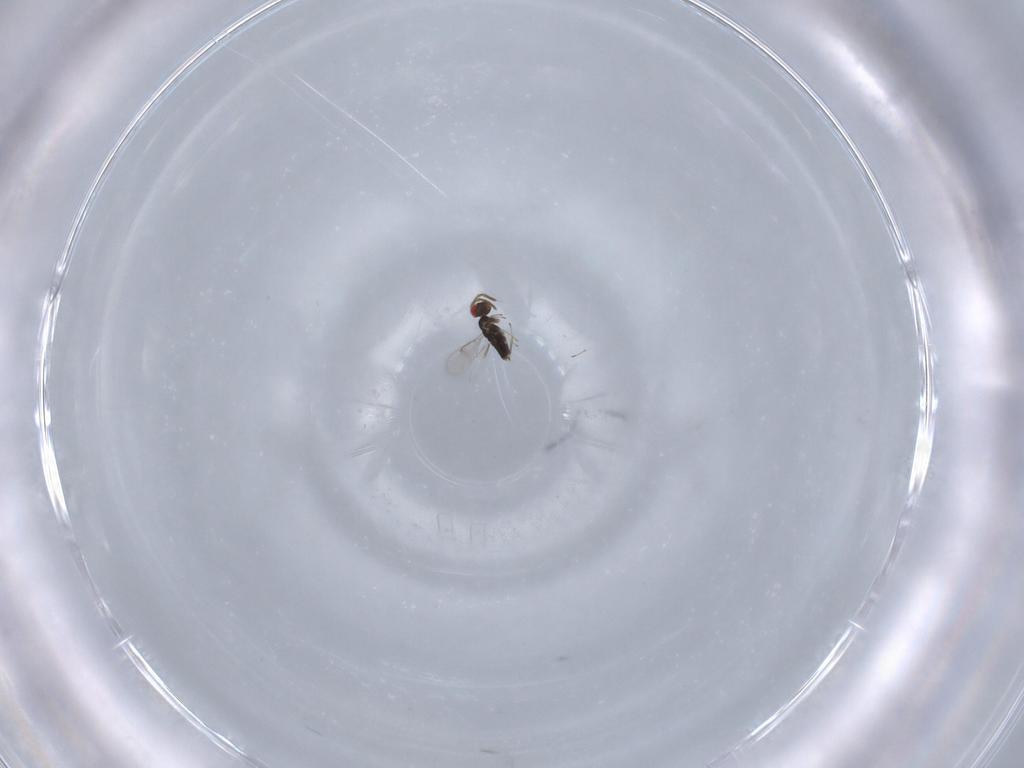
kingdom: Animalia
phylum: Arthropoda
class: Insecta
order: Hymenoptera
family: Aphelinidae
